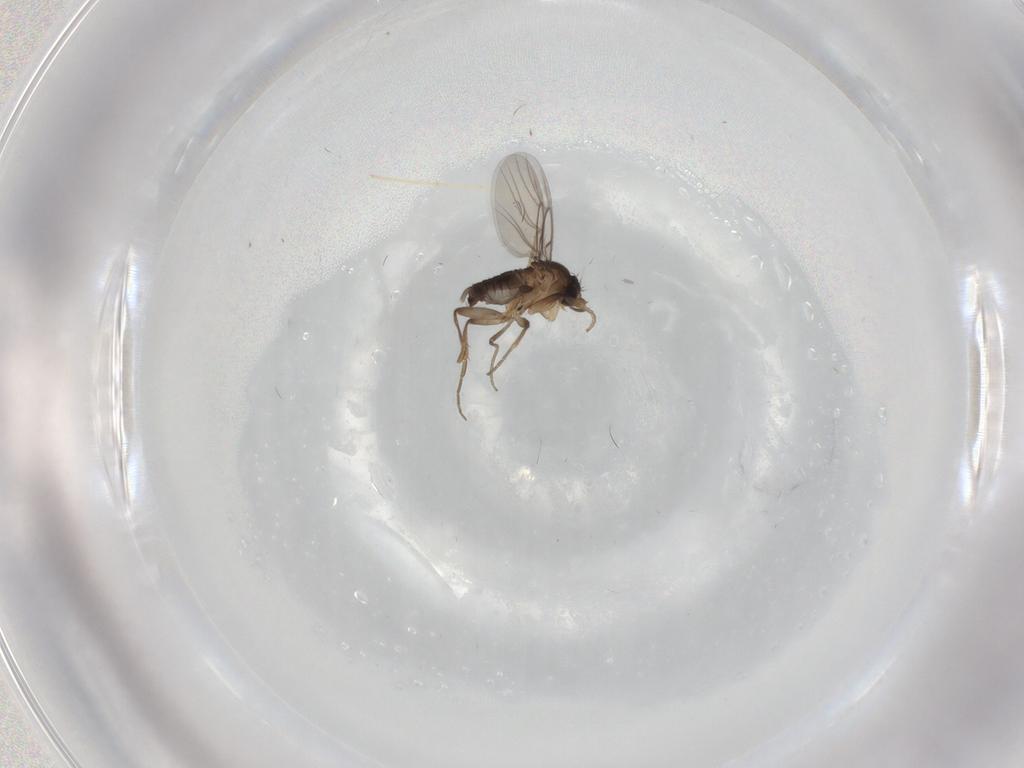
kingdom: Animalia
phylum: Arthropoda
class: Insecta
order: Diptera
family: Phoridae
